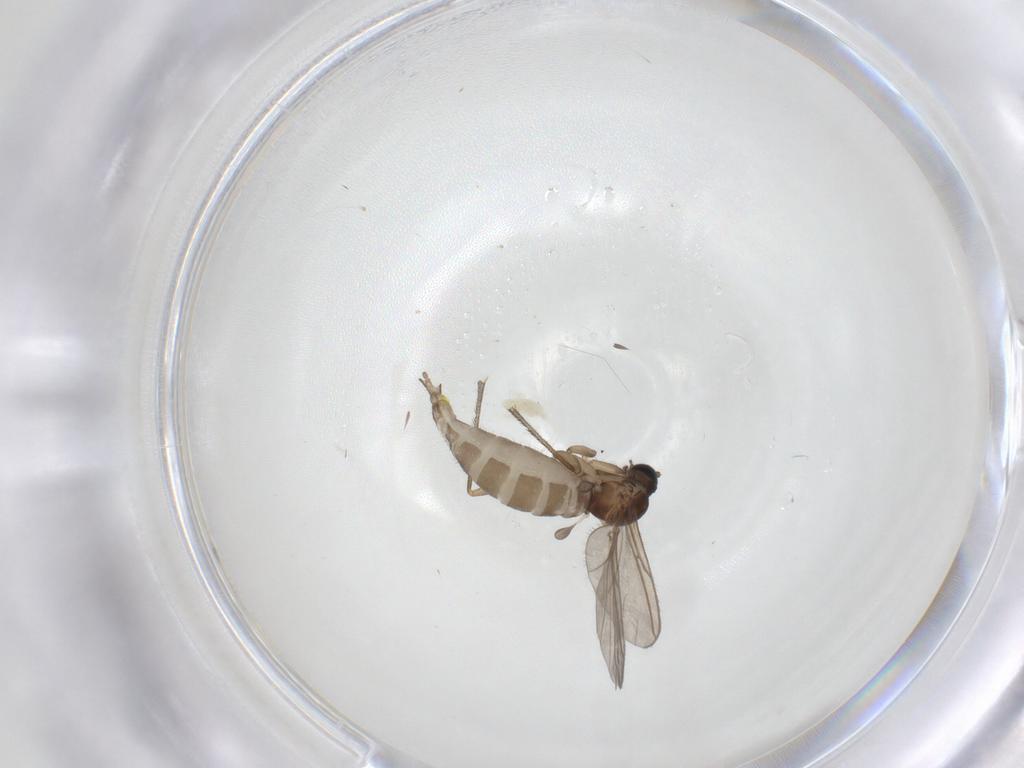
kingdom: Animalia
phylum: Arthropoda
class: Insecta
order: Diptera
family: Sciaridae
